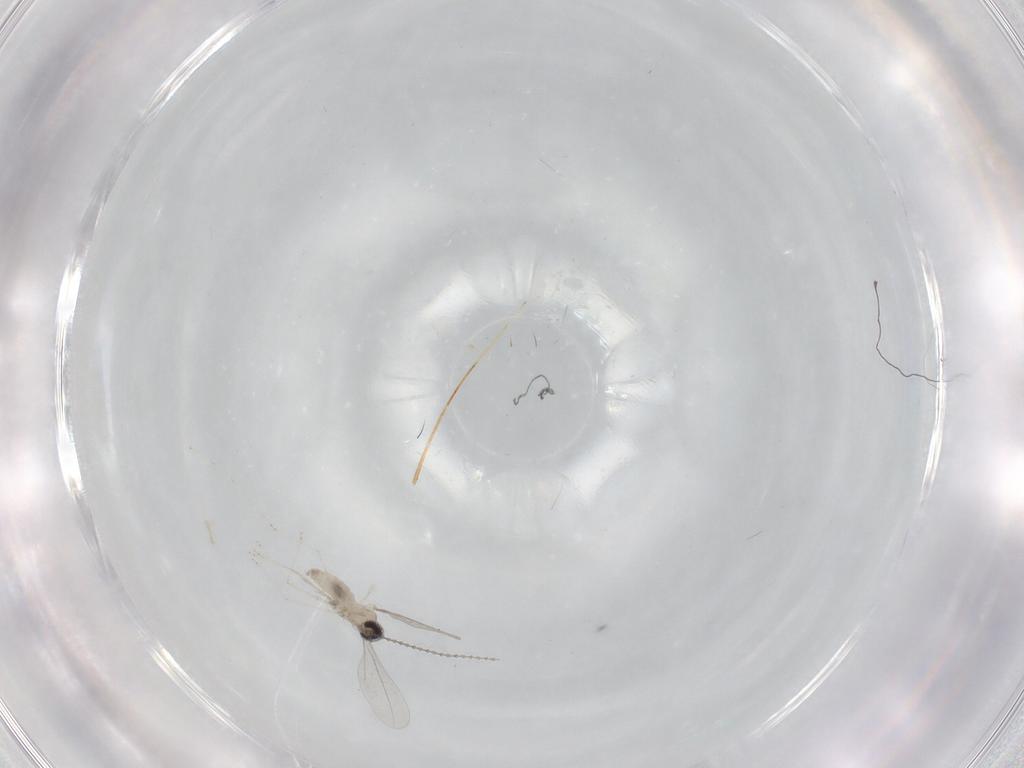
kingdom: Animalia
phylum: Arthropoda
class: Insecta
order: Diptera
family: Cecidomyiidae
